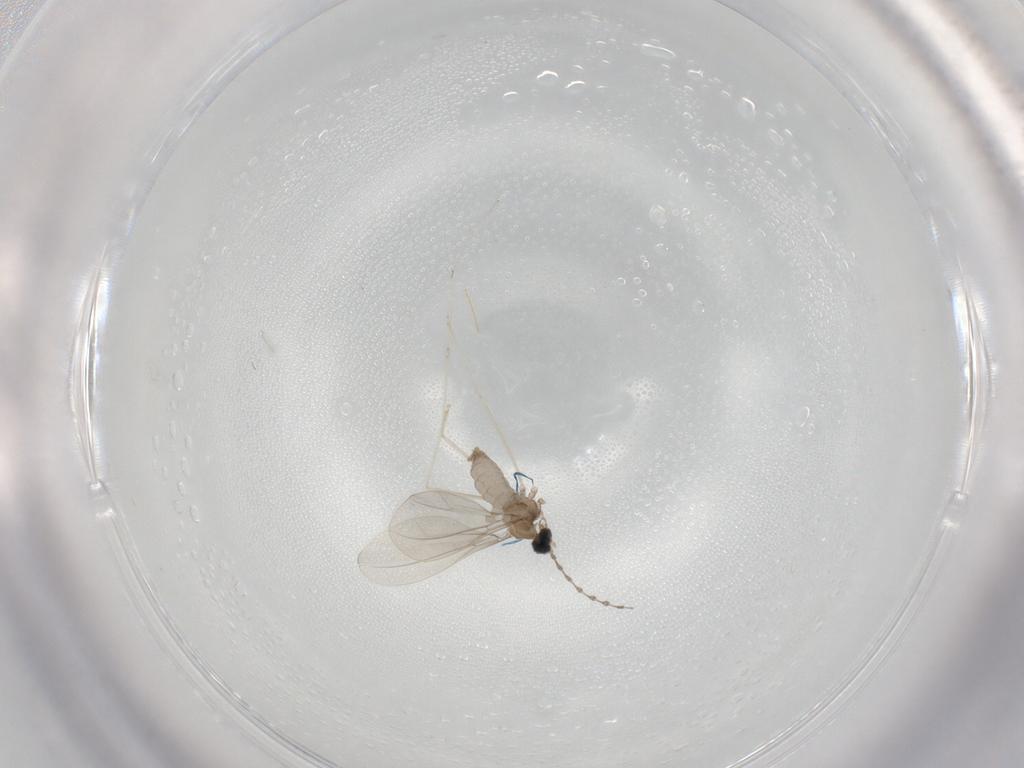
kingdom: Animalia
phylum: Arthropoda
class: Insecta
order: Diptera
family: Cecidomyiidae
